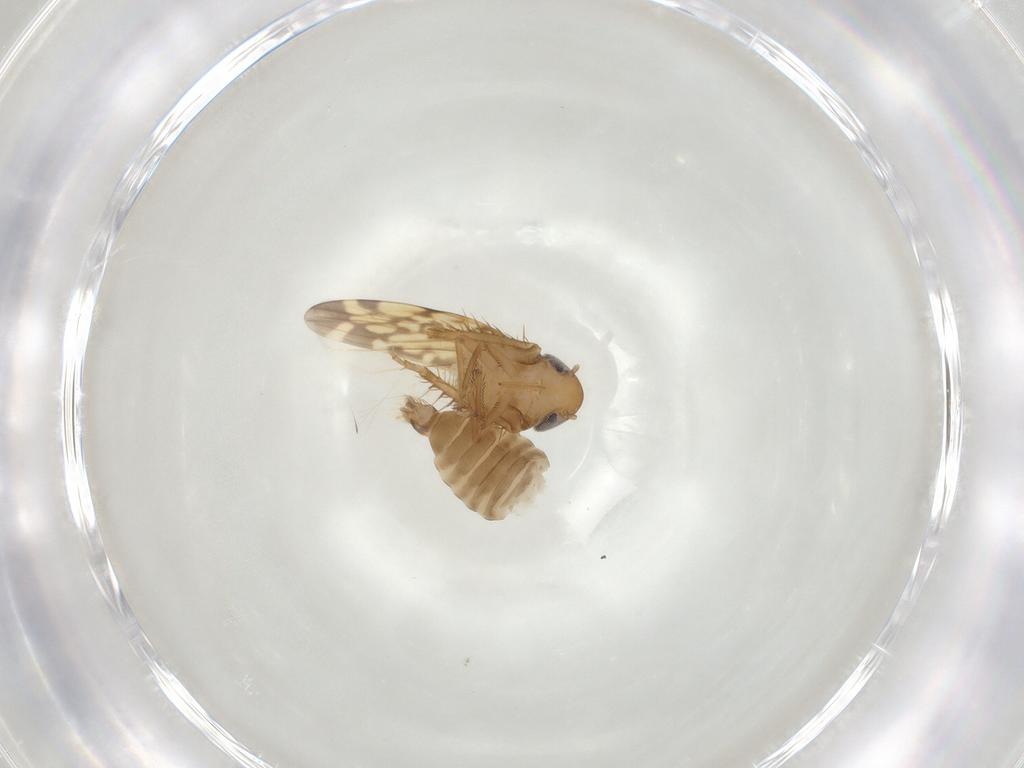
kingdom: Animalia
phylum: Arthropoda
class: Insecta
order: Hemiptera
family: Cicadellidae
